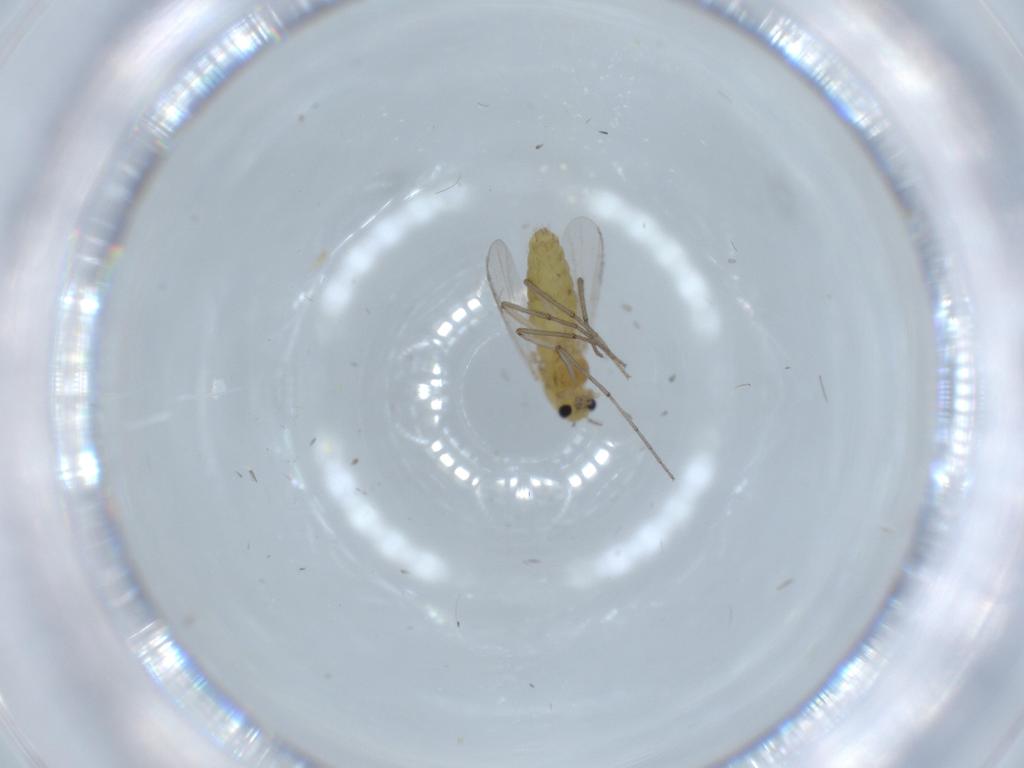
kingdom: Animalia
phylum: Arthropoda
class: Insecta
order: Diptera
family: Chironomidae
